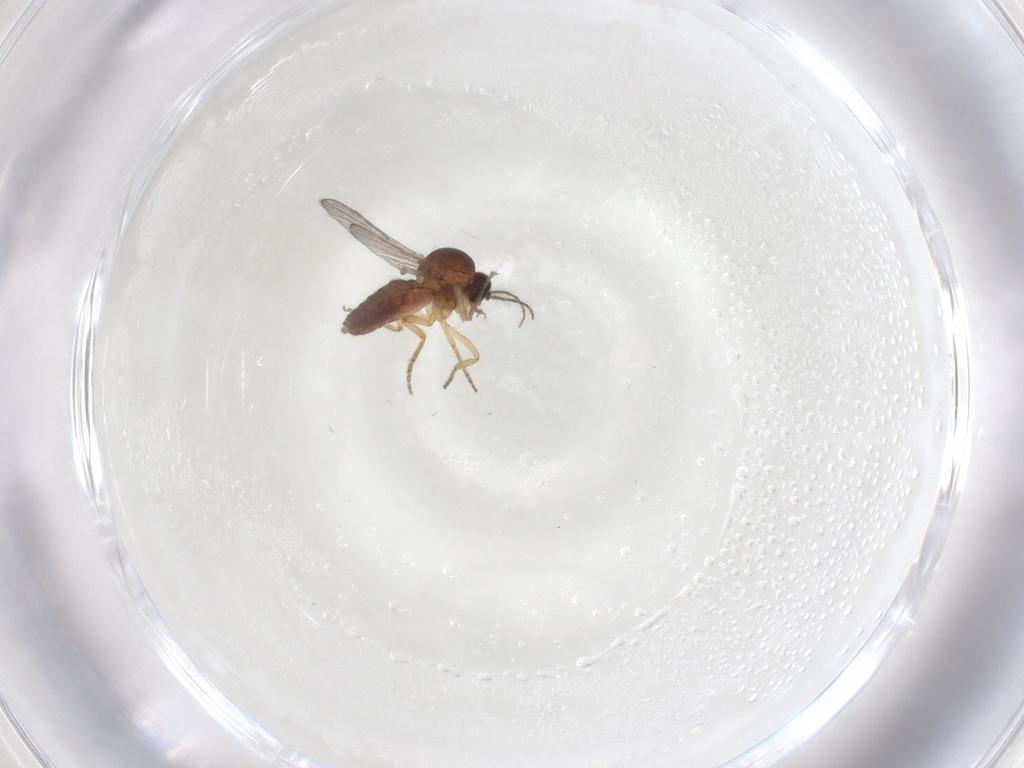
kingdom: Animalia
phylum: Arthropoda
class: Insecta
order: Diptera
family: Ceratopogonidae
